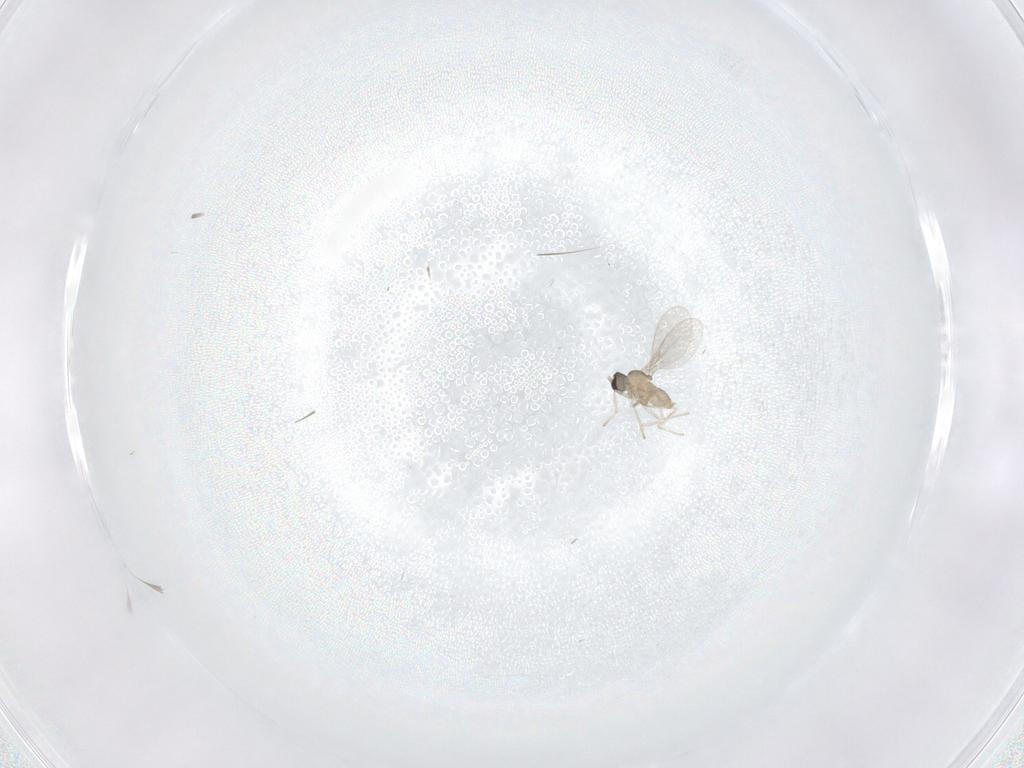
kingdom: Animalia
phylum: Arthropoda
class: Insecta
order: Diptera
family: Cecidomyiidae
